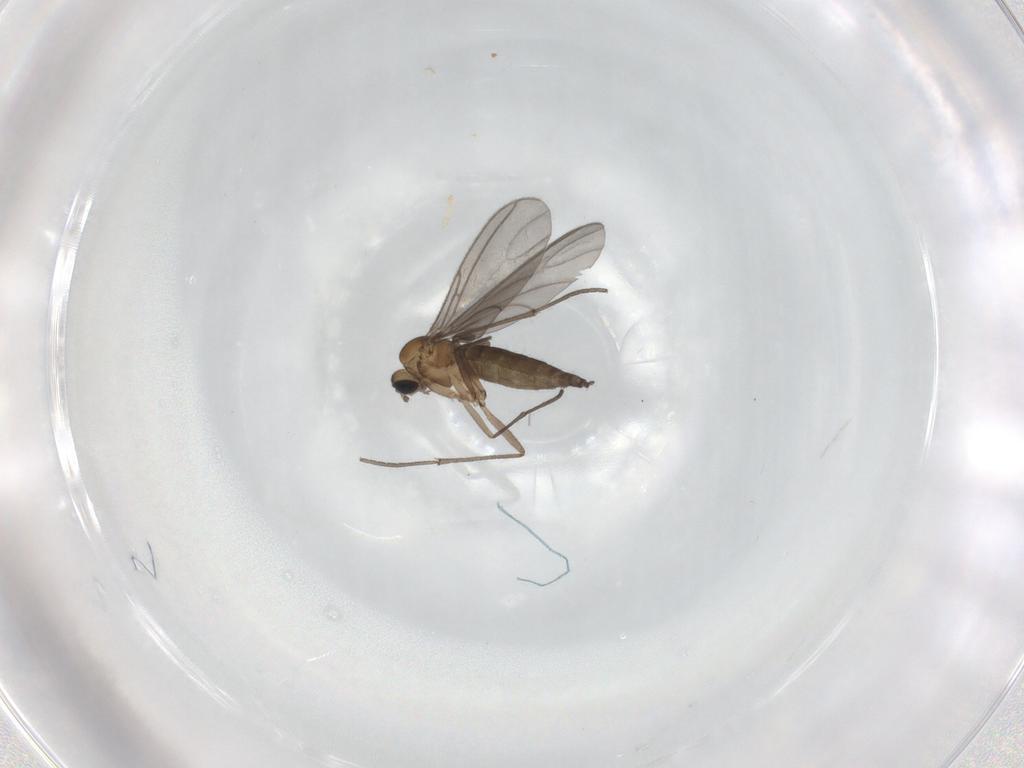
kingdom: Animalia
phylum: Arthropoda
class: Insecta
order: Diptera
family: Sciaridae
